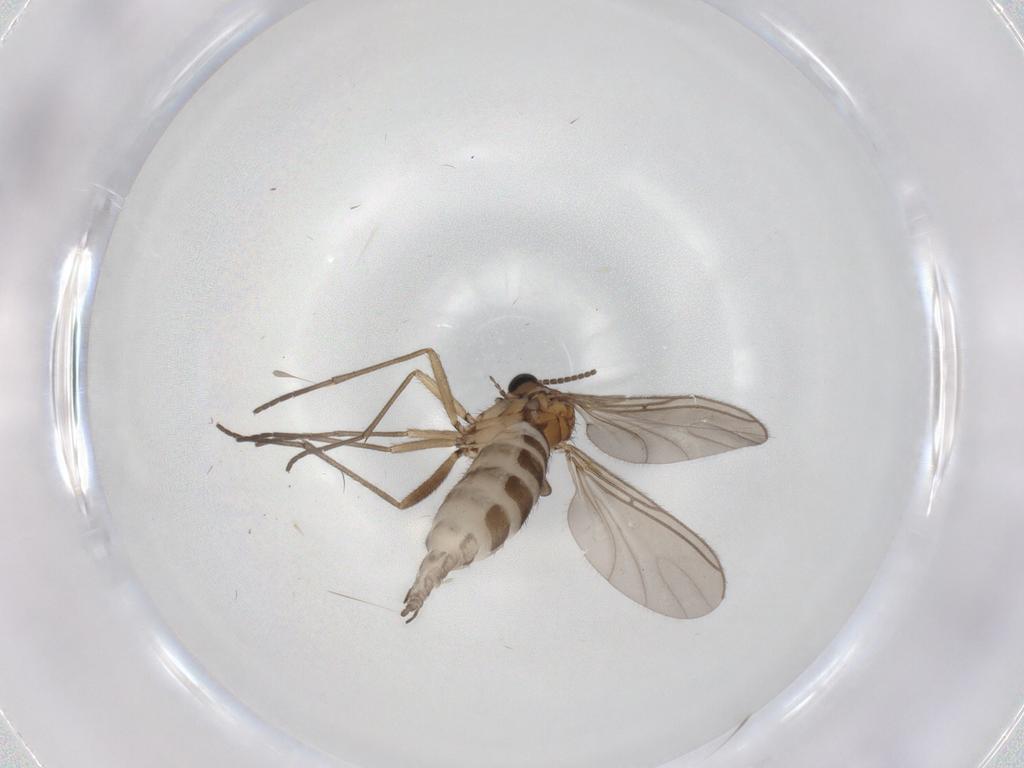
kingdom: Animalia
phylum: Arthropoda
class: Insecta
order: Diptera
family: Sciaridae
